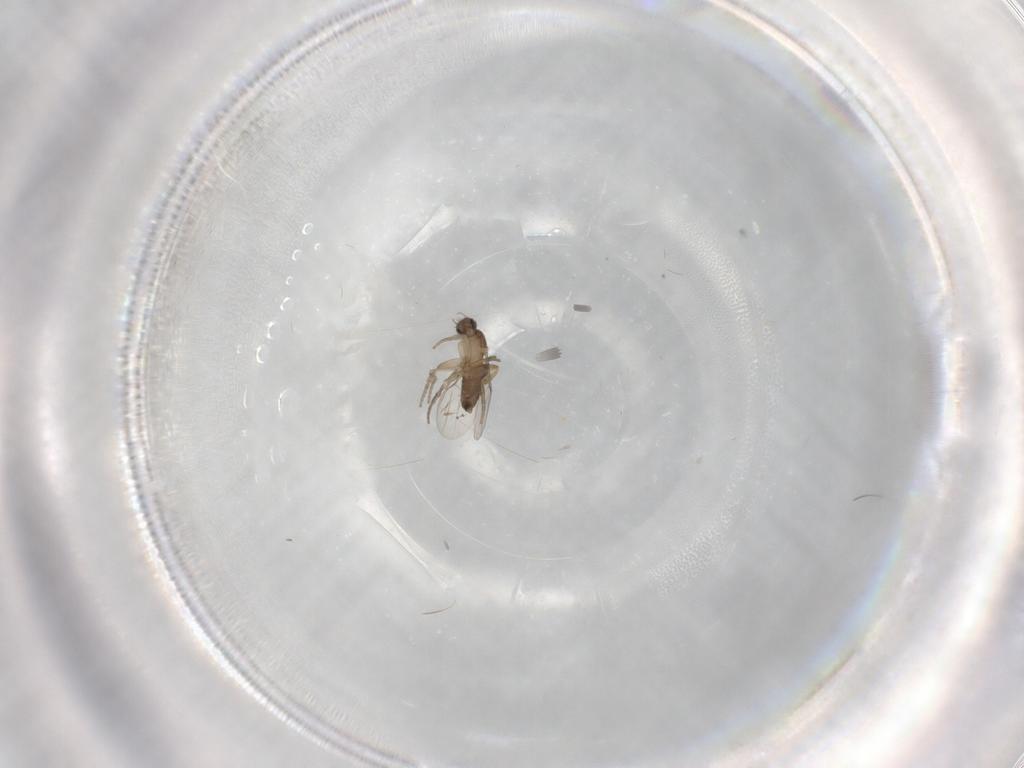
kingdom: Animalia
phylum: Arthropoda
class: Insecta
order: Diptera
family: Phoridae
